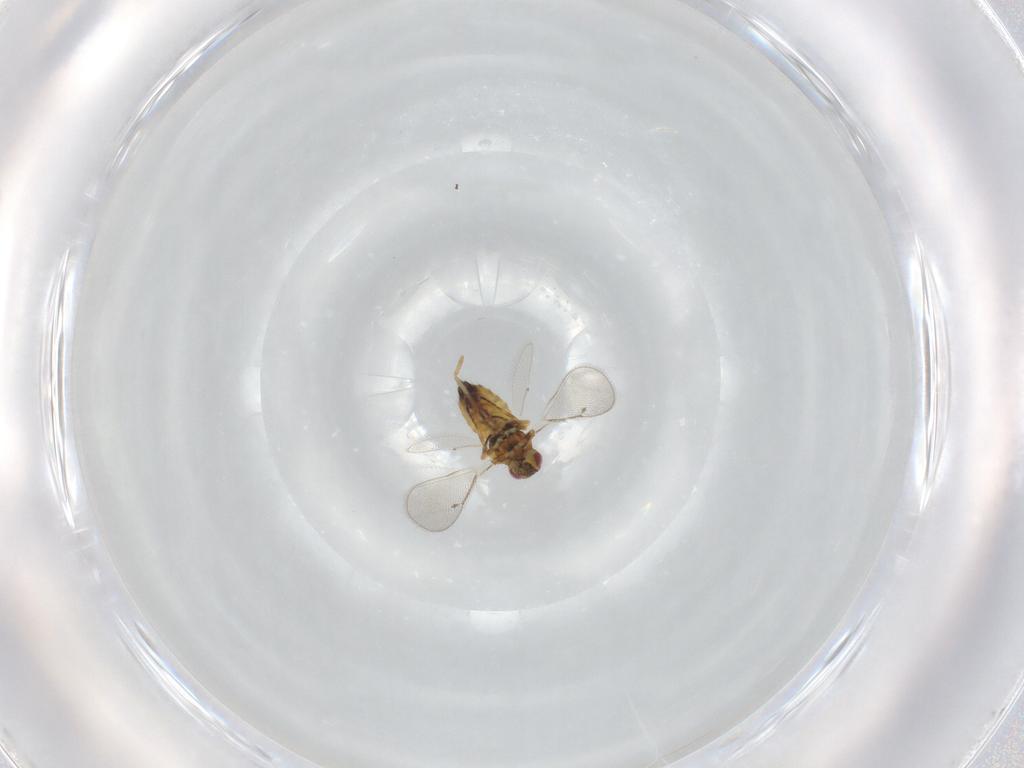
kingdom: Animalia
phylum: Arthropoda
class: Insecta
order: Hymenoptera
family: Eulophidae
